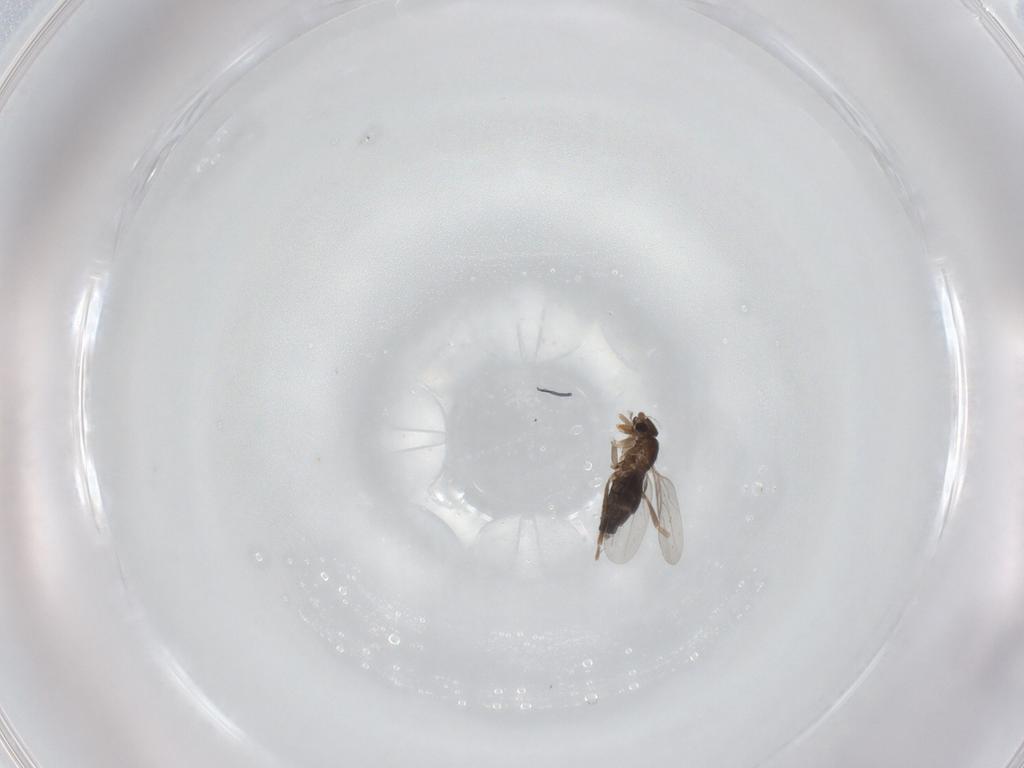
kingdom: Animalia
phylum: Arthropoda
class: Insecta
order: Diptera
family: Phoridae
